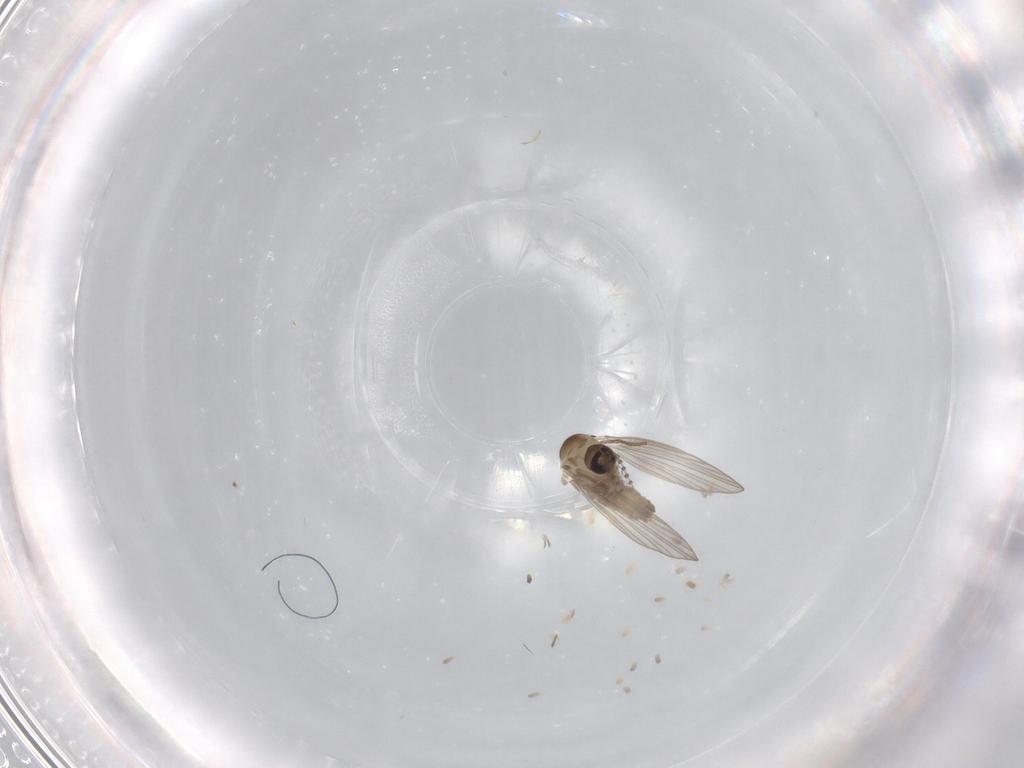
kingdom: Animalia
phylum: Arthropoda
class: Insecta
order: Diptera
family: Psychodidae
